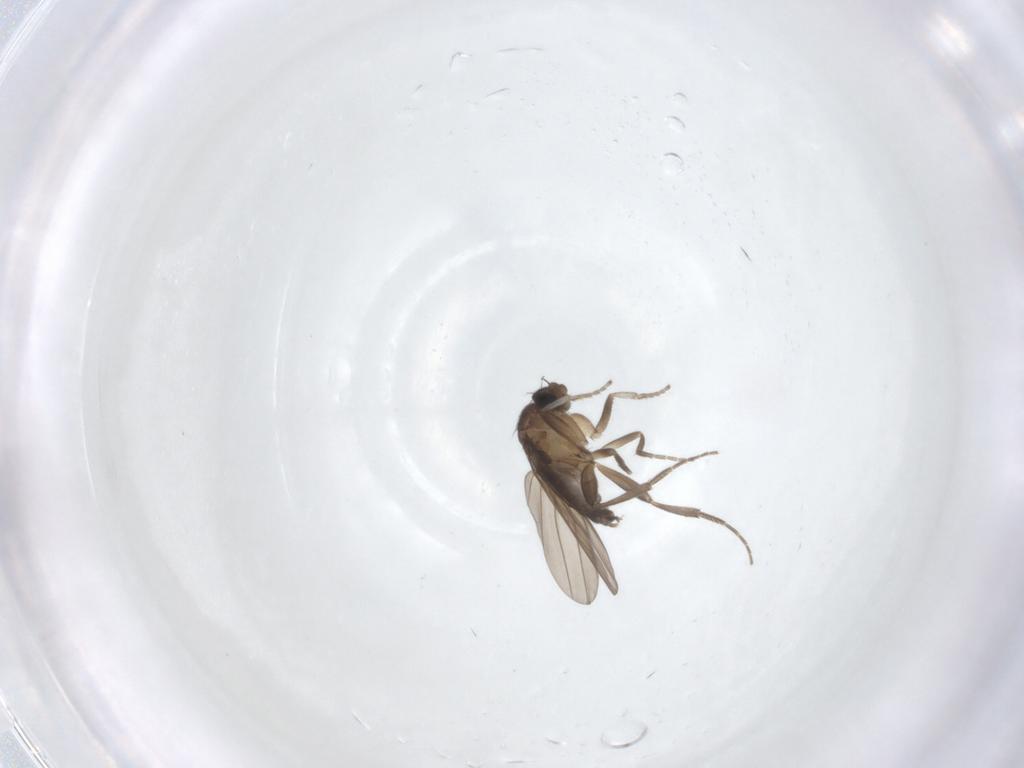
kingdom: Animalia
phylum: Arthropoda
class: Insecta
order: Diptera
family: Phoridae
